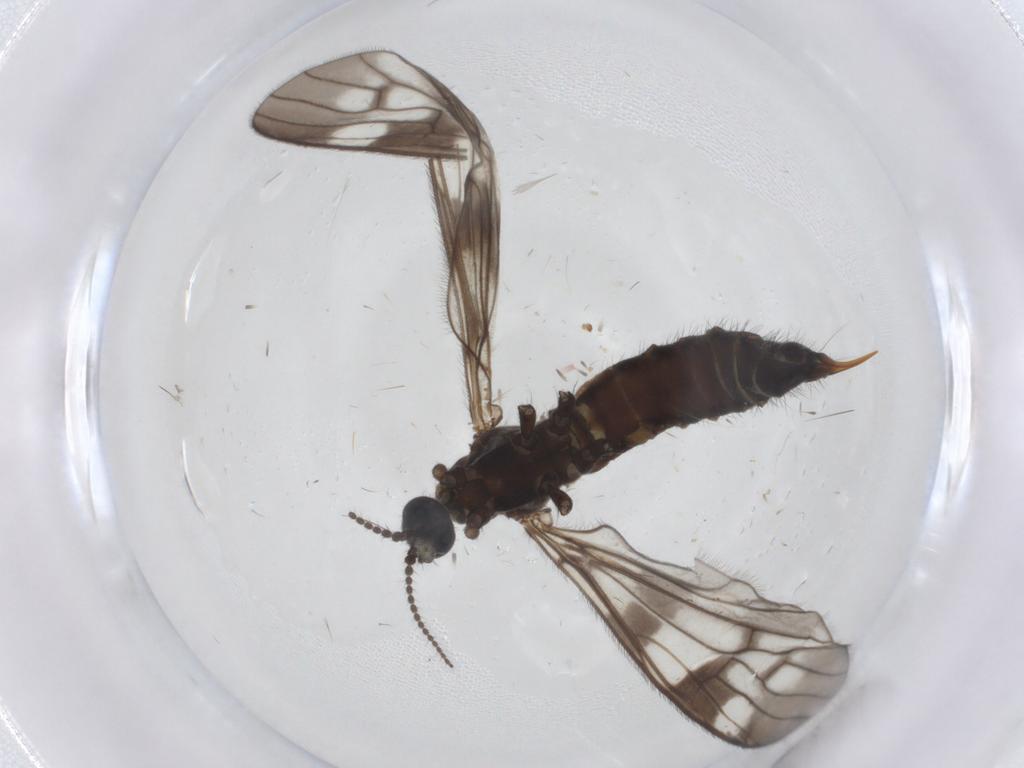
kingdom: Animalia
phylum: Arthropoda
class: Insecta
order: Diptera
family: Limoniidae
